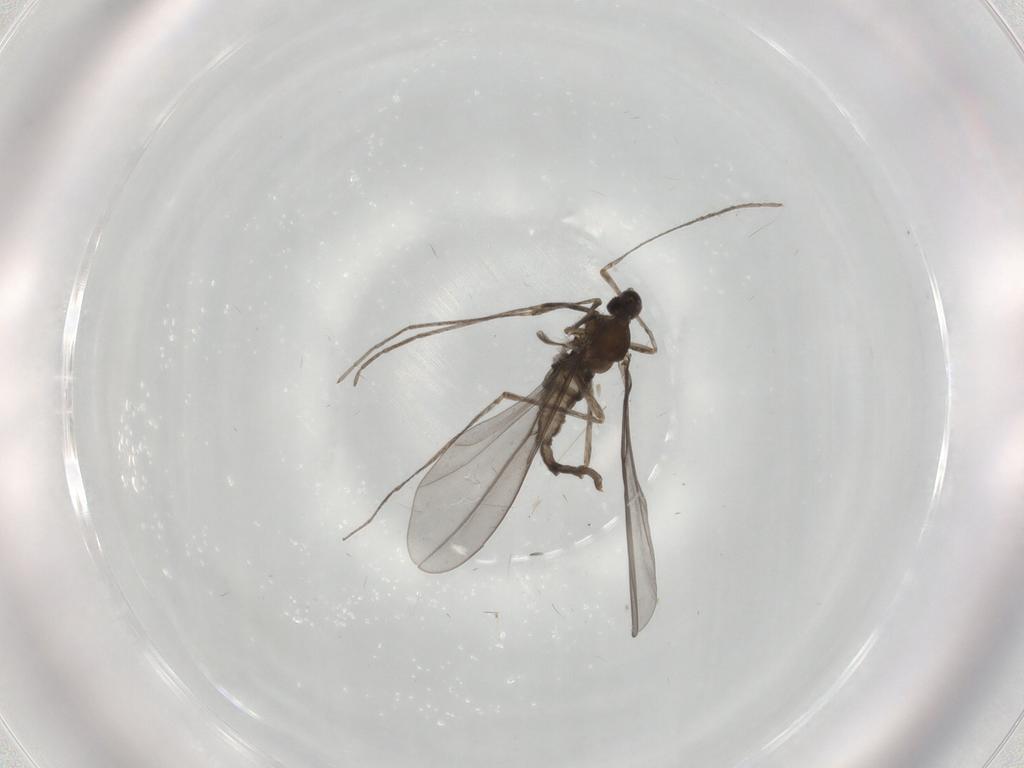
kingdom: Animalia
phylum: Arthropoda
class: Insecta
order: Diptera
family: Cecidomyiidae
